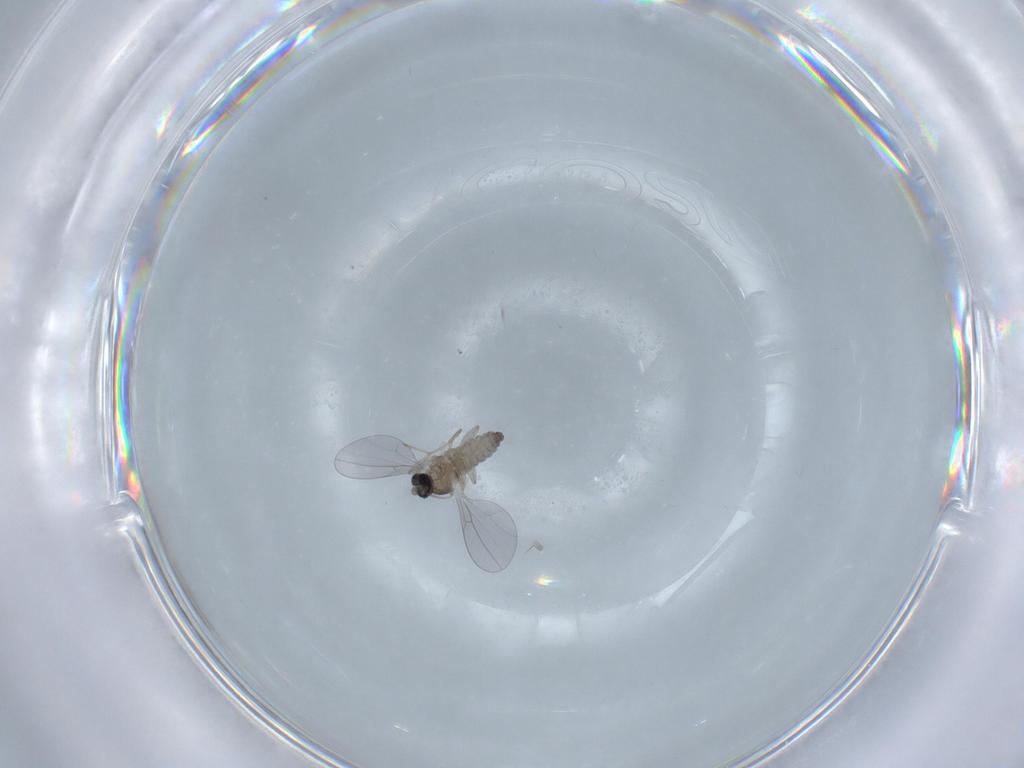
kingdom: Animalia
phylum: Arthropoda
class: Insecta
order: Diptera
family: Cecidomyiidae
